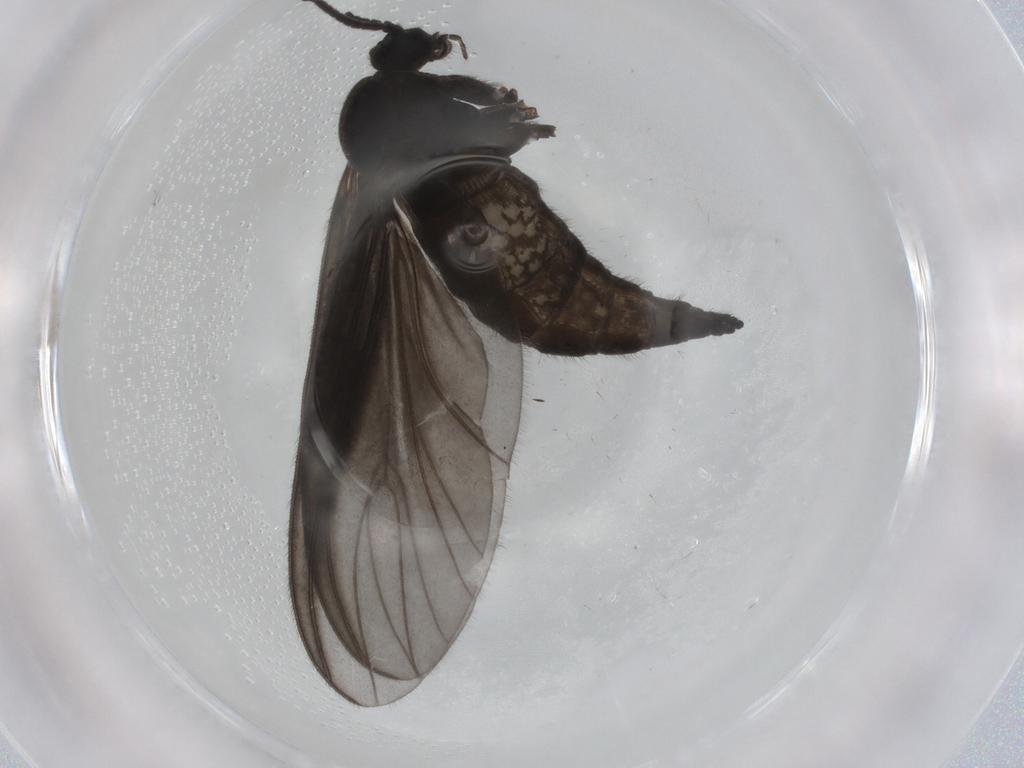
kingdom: Animalia
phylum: Arthropoda
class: Insecta
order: Diptera
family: Sciaridae
